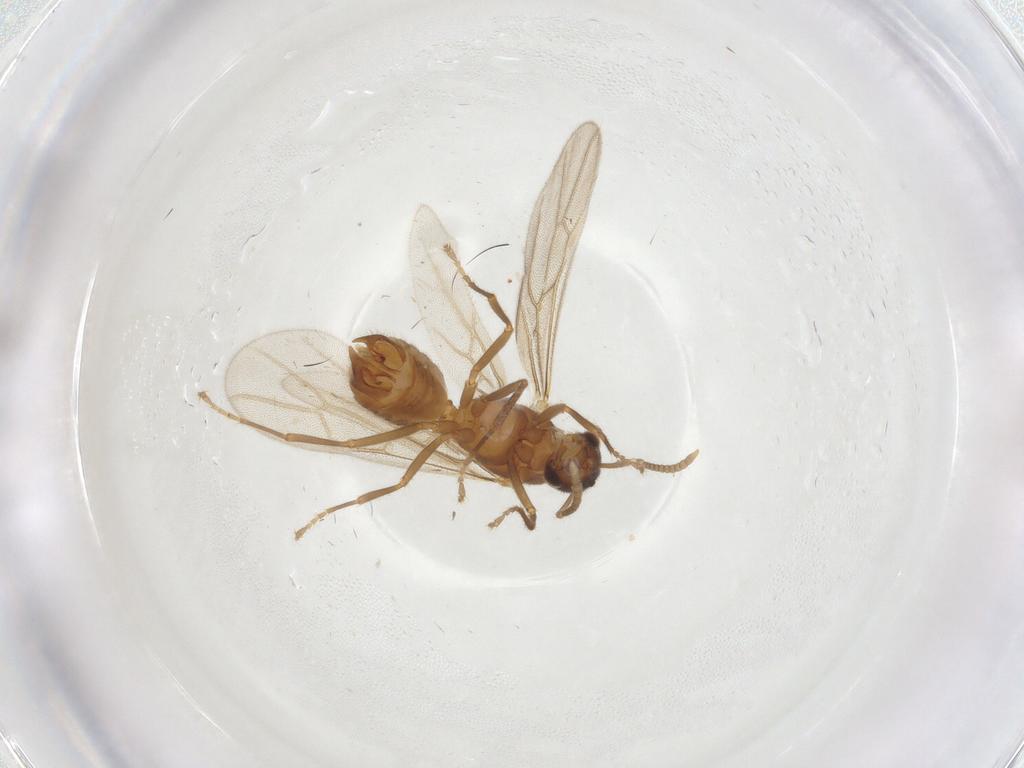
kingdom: Animalia
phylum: Arthropoda
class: Insecta
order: Hymenoptera
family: Formicidae
